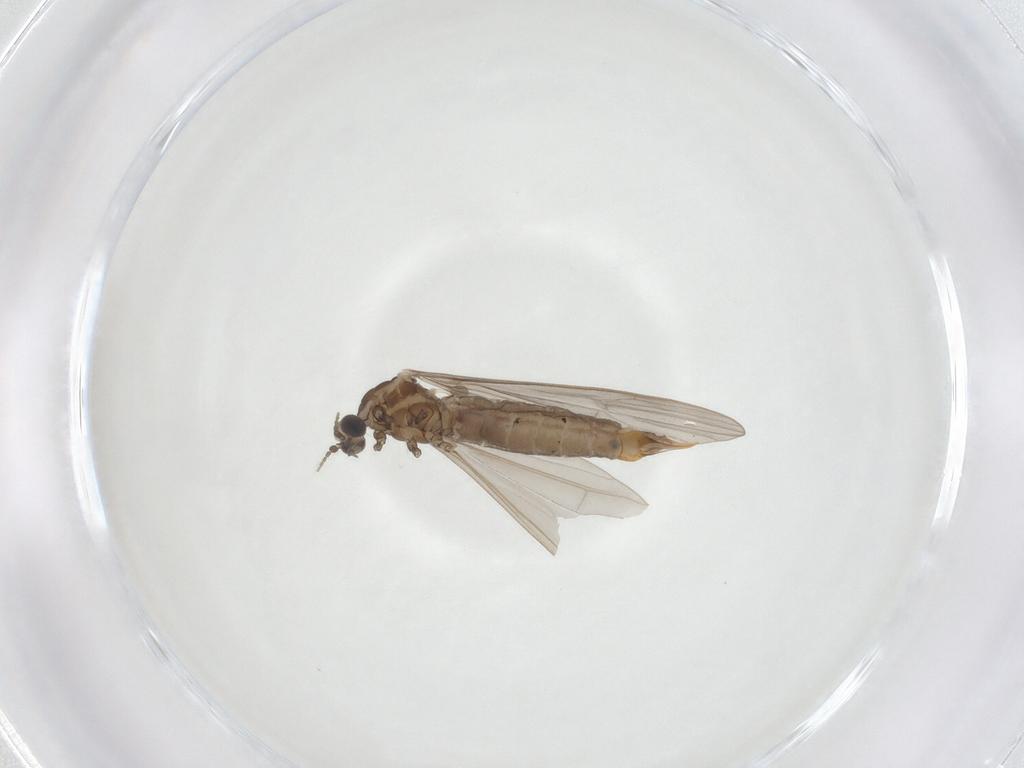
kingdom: Animalia
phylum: Arthropoda
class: Insecta
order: Diptera
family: Limoniidae
